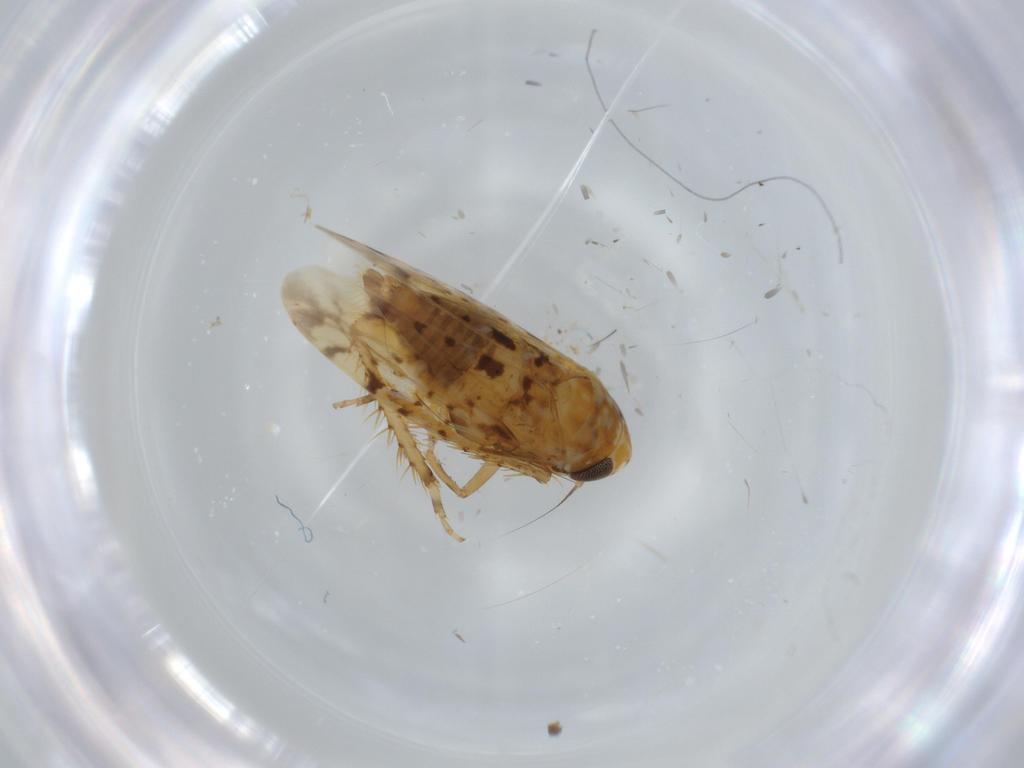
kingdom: Animalia
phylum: Arthropoda
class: Insecta
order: Hemiptera
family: Cicadellidae
